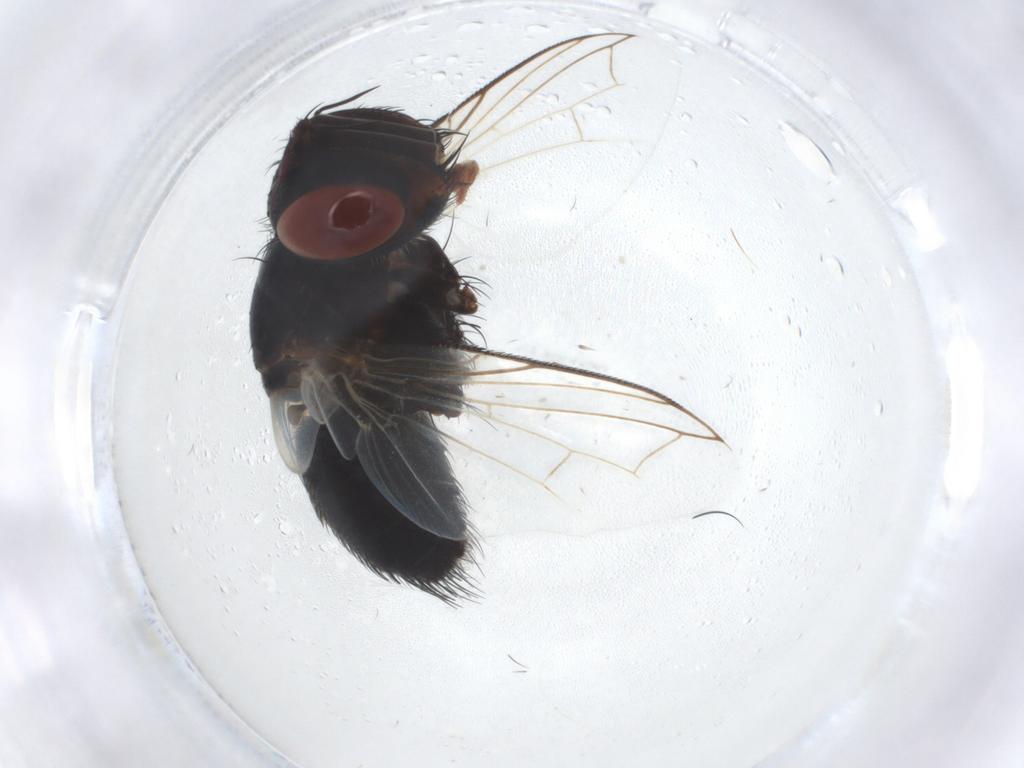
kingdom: Animalia
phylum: Arthropoda
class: Insecta
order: Diptera
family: Tachinidae
